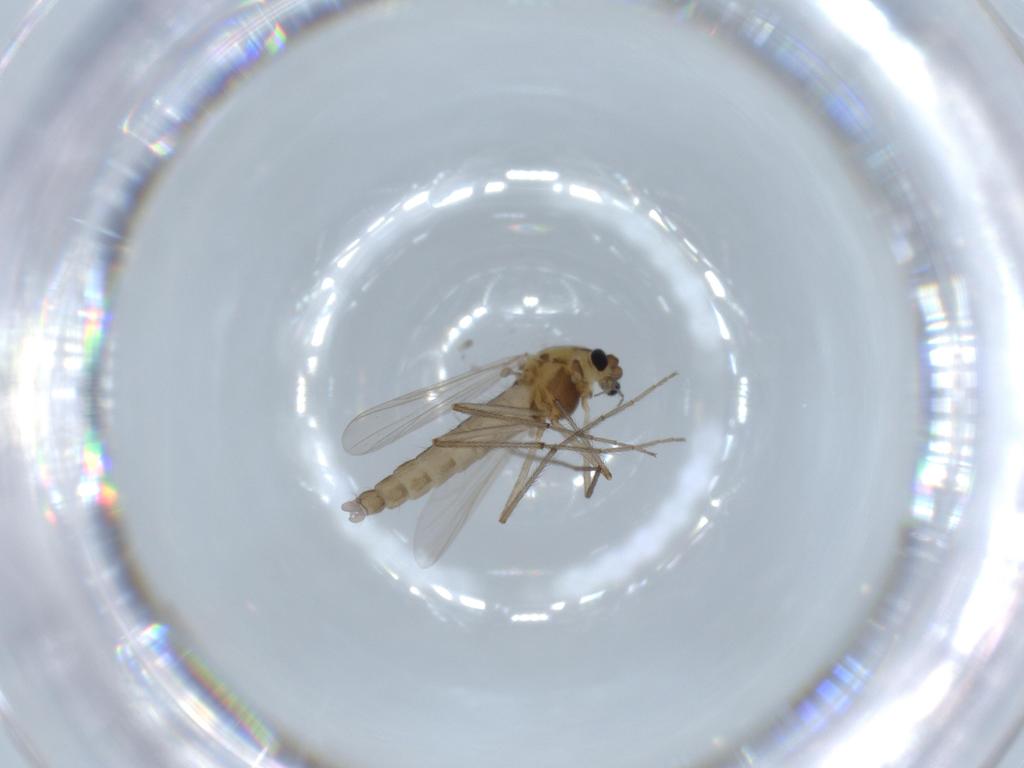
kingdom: Animalia
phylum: Arthropoda
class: Insecta
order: Diptera
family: Chironomidae
